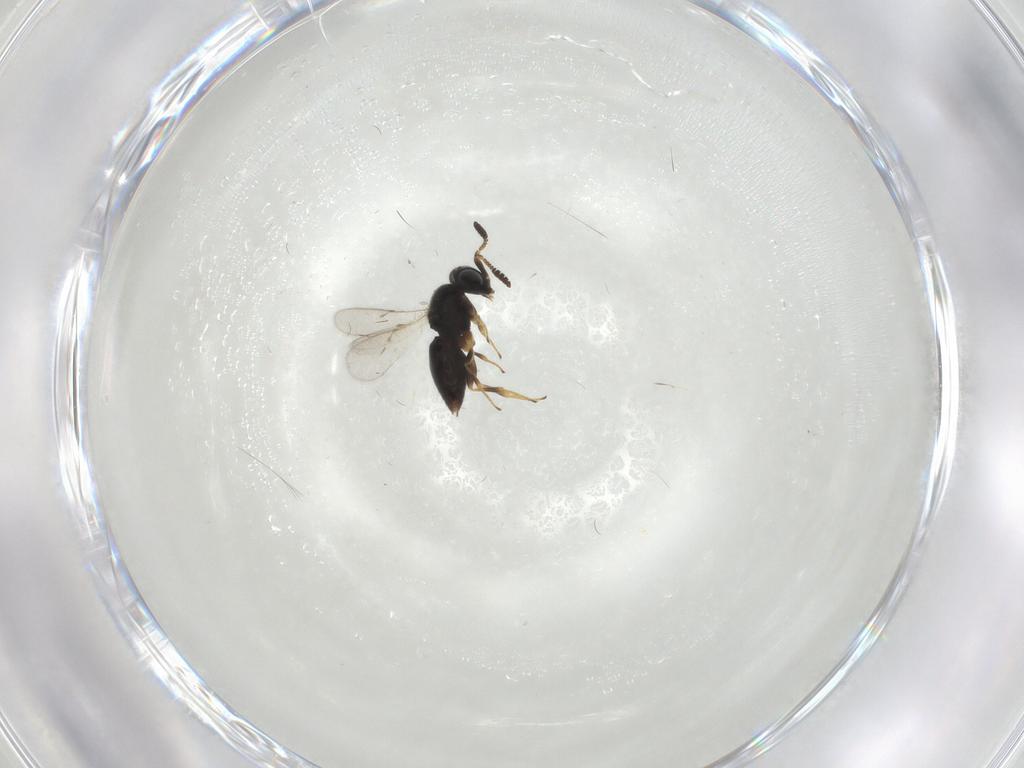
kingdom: Animalia
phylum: Arthropoda
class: Insecta
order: Hymenoptera
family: Scelionidae
